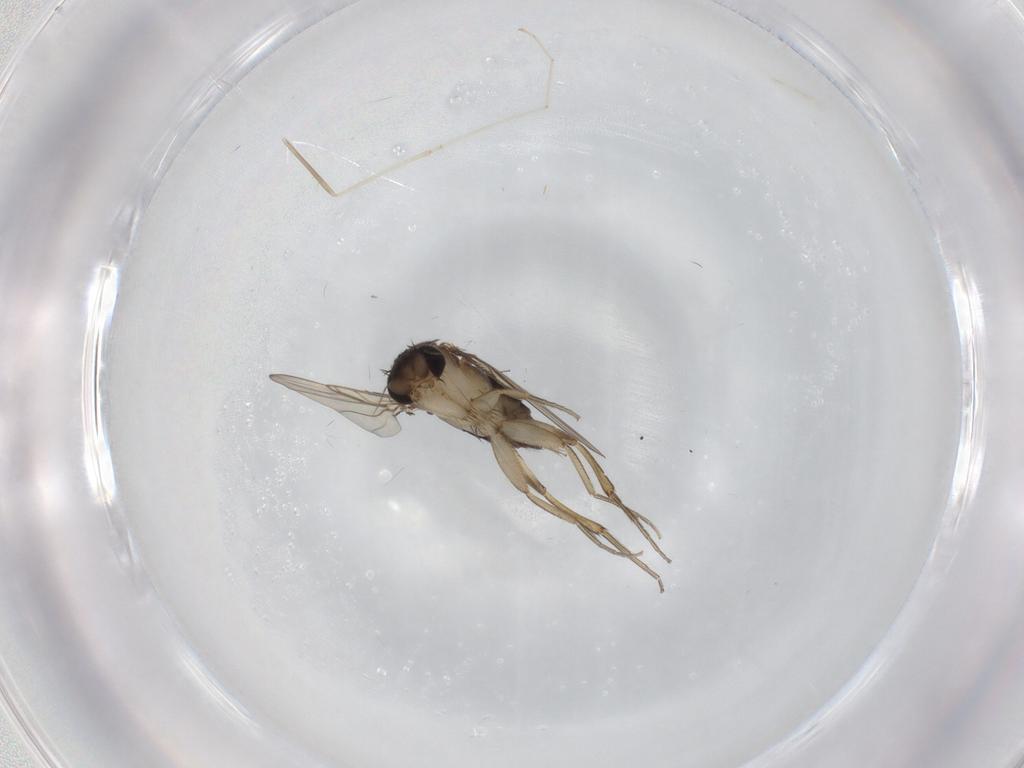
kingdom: Animalia
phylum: Arthropoda
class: Insecta
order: Diptera
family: Phoridae
